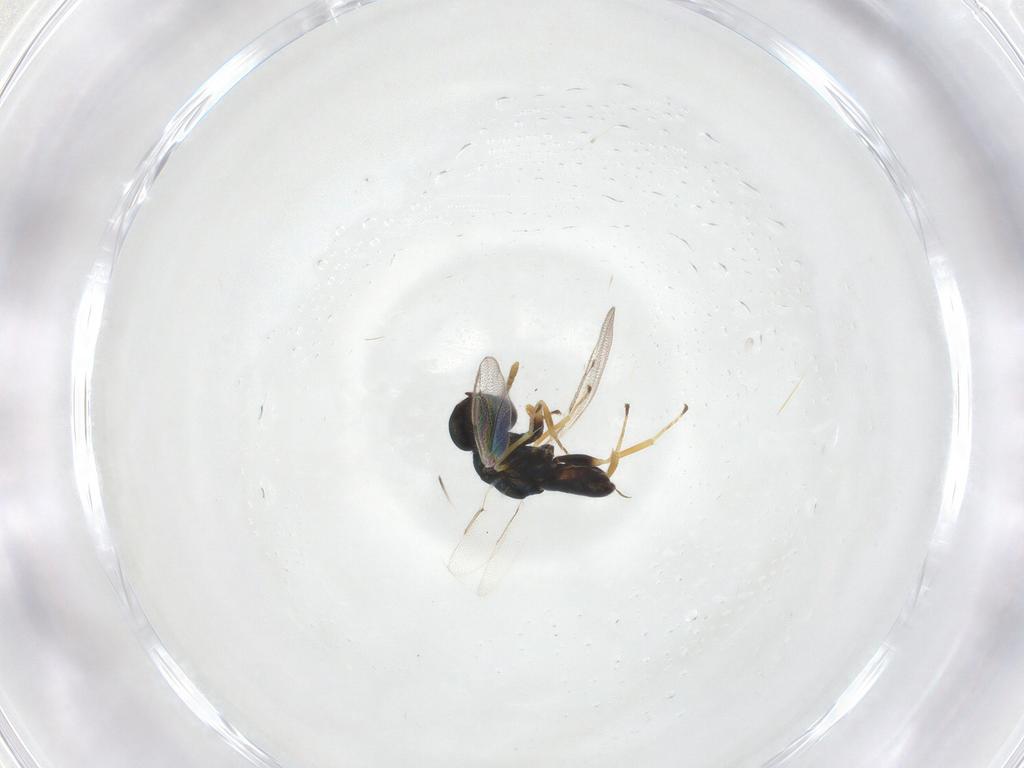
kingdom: Animalia
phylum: Arthropoda
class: Insecta
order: Hymenoptera
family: Pteromalidae
